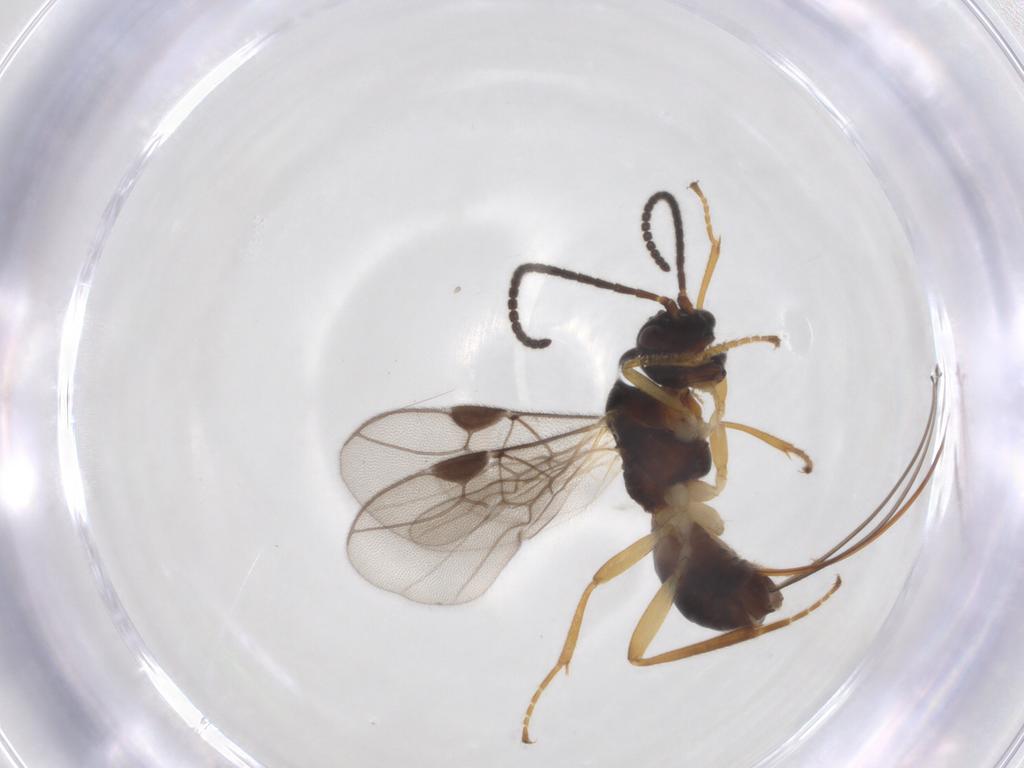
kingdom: Animalia
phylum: Arthropoda
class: Insecta
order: Hymenoptera
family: Braconidae
